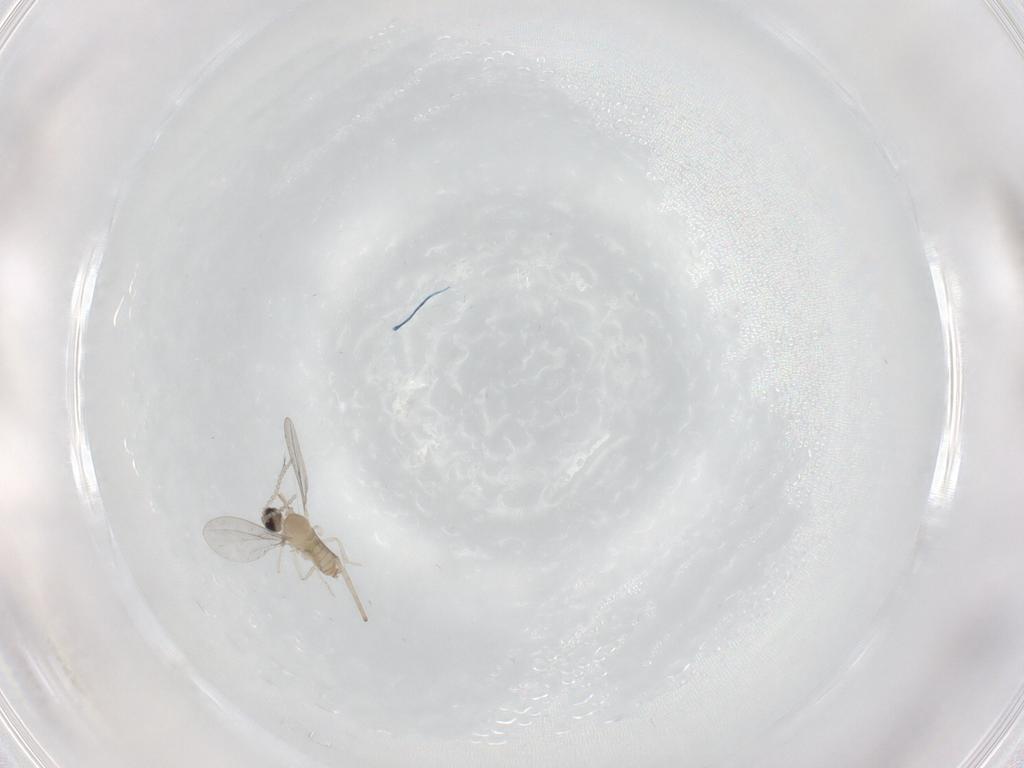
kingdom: Animalia
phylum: Arthropoda
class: Insecta
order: Diptera
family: Cecidomyiidae
